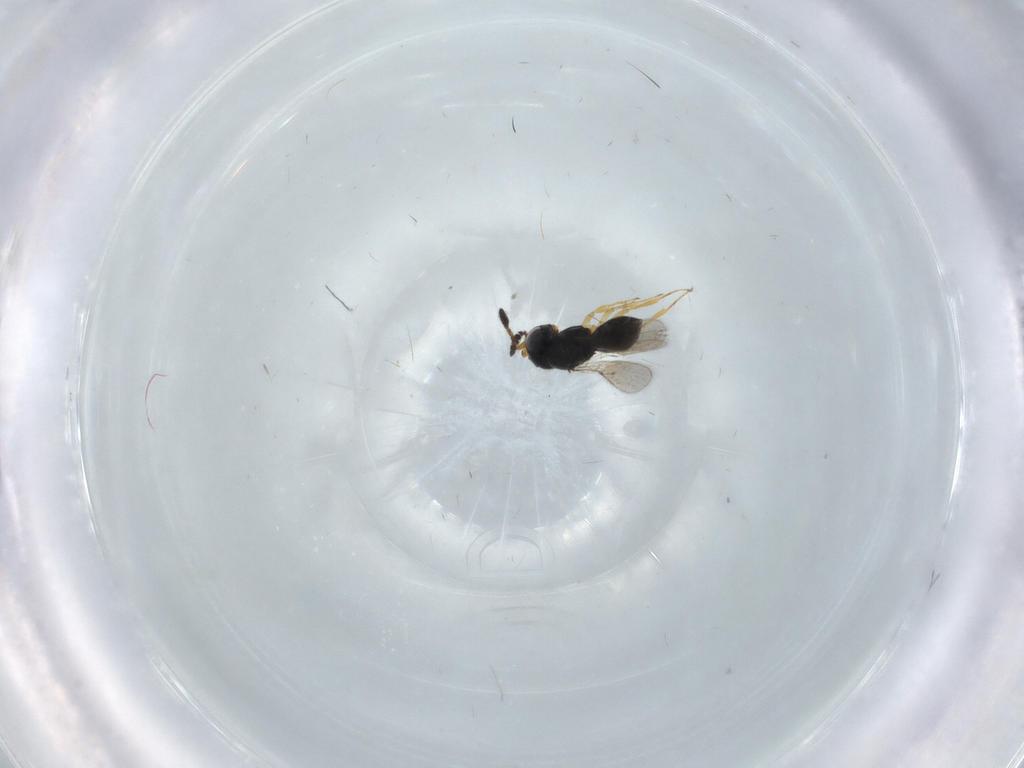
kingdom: Animalia
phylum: Arthropoda
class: Insecta
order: Hymenoptera
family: Scelionidae
